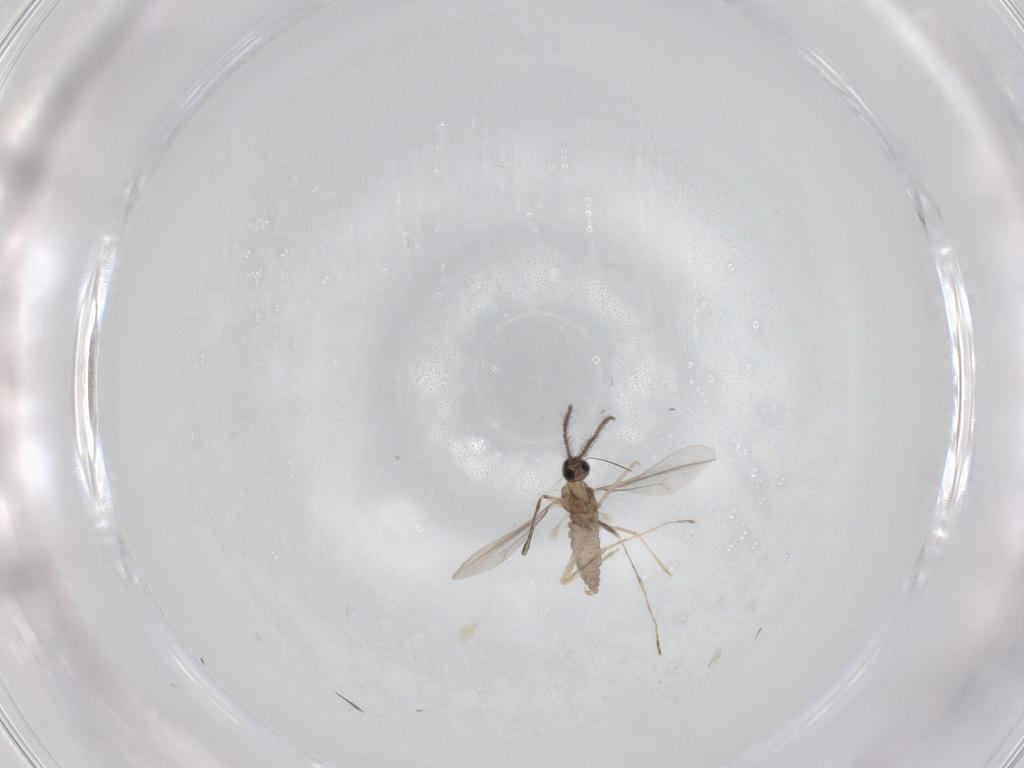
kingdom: Animalia
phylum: Arthropoda
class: Insecta
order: Diptera
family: Cecidomyiidae
